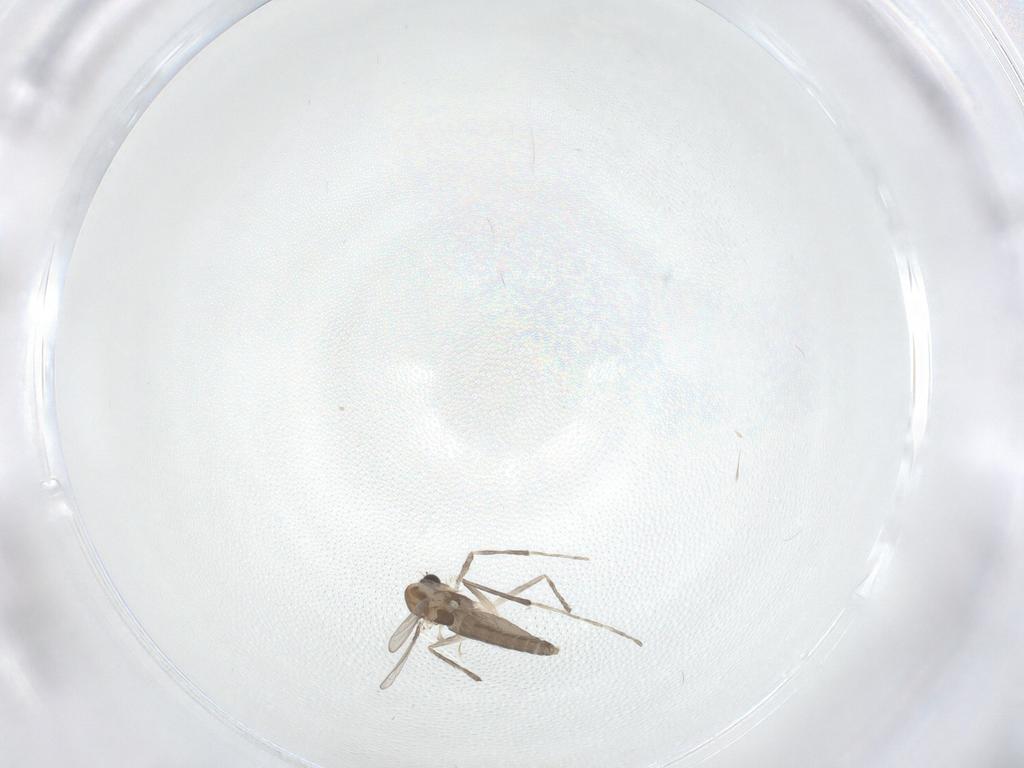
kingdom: Animalia
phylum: Arthropoda
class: Insecta
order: Diptera
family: Chironomidae
